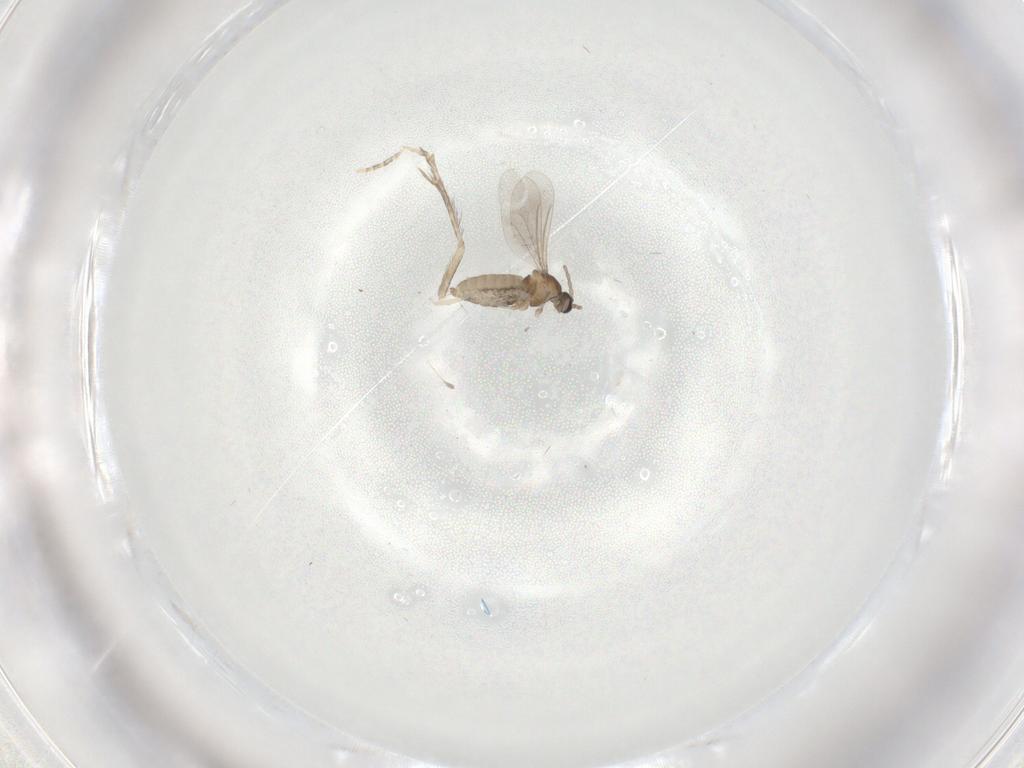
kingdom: Animalia
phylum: Arthropoda
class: Insecta
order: Diptera
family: Cecidomyiidae
